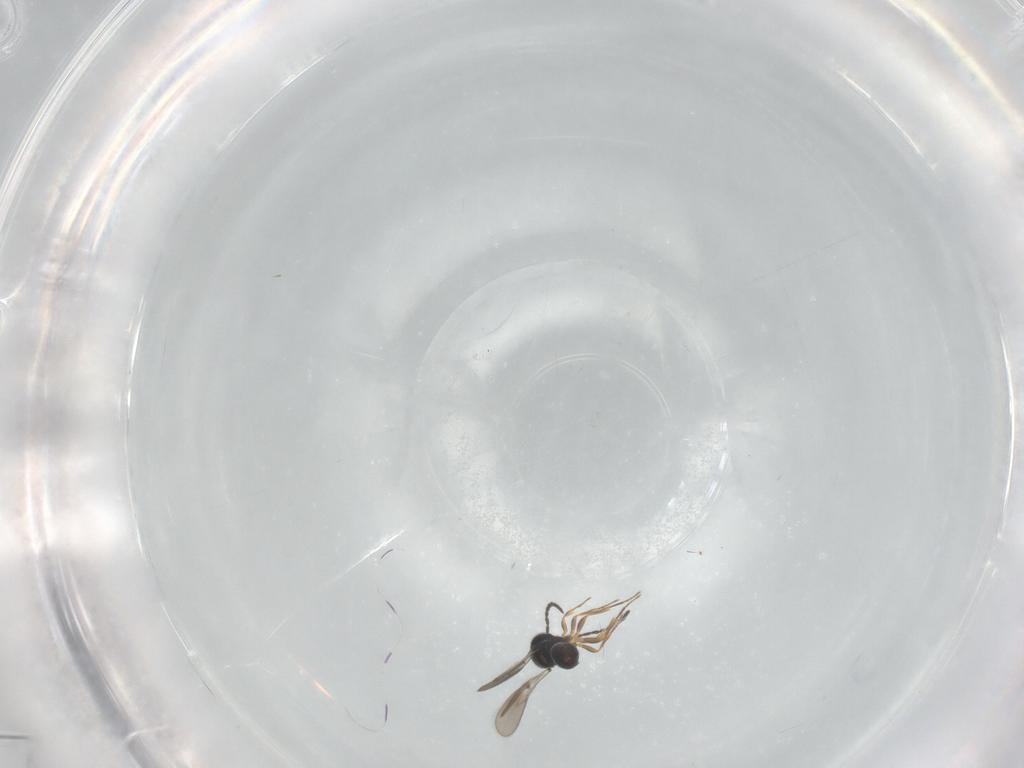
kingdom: Animalia
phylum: Arthropoda
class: Insecta
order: Hymenoptera
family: Scelionidae
